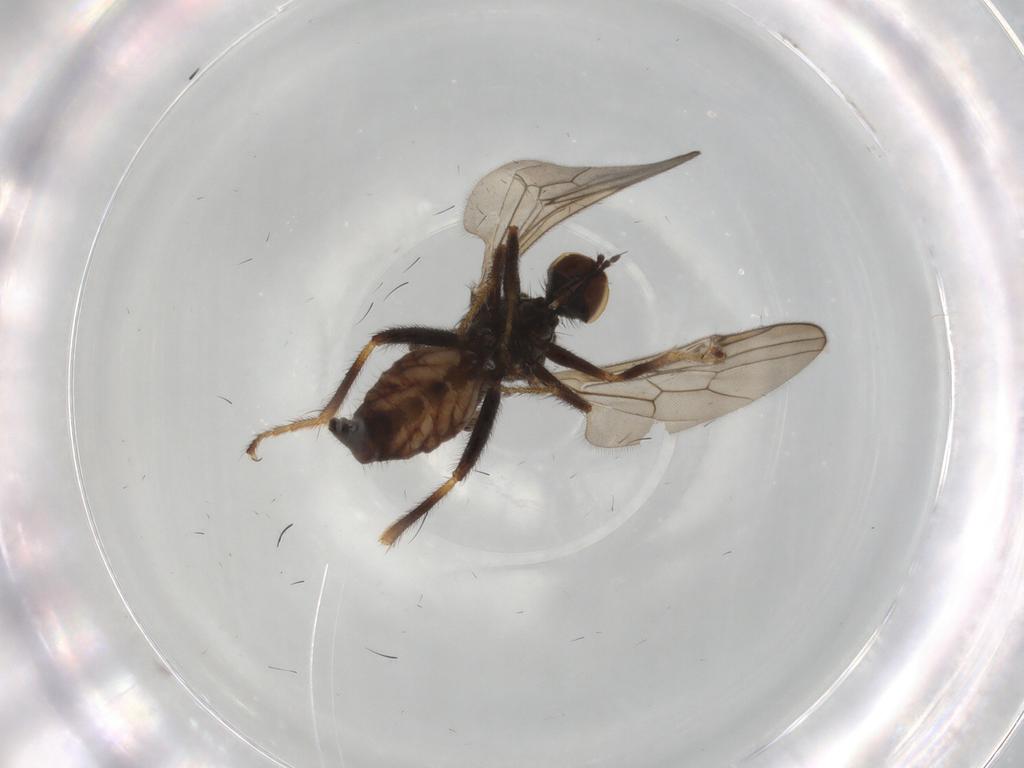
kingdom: Animalia
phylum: Arthropoda
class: Insecta
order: Diptera
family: Hybotidae
